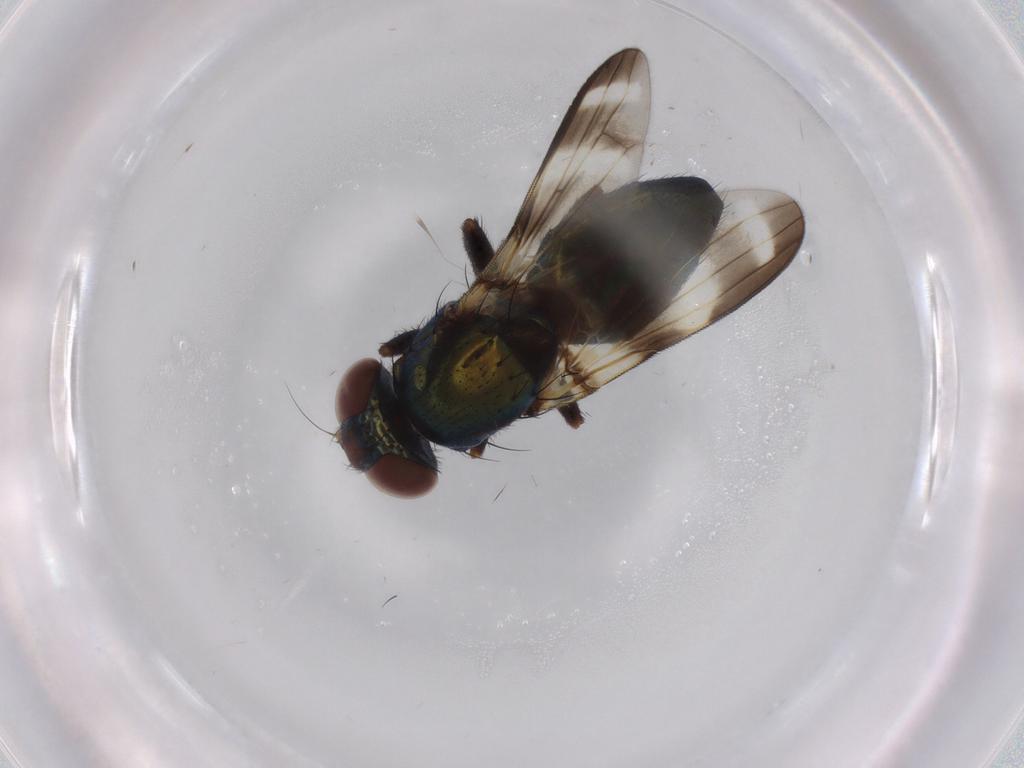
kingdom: Animalia
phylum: Arthropoda
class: Insecta
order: Diptera
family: Ulidiidae
